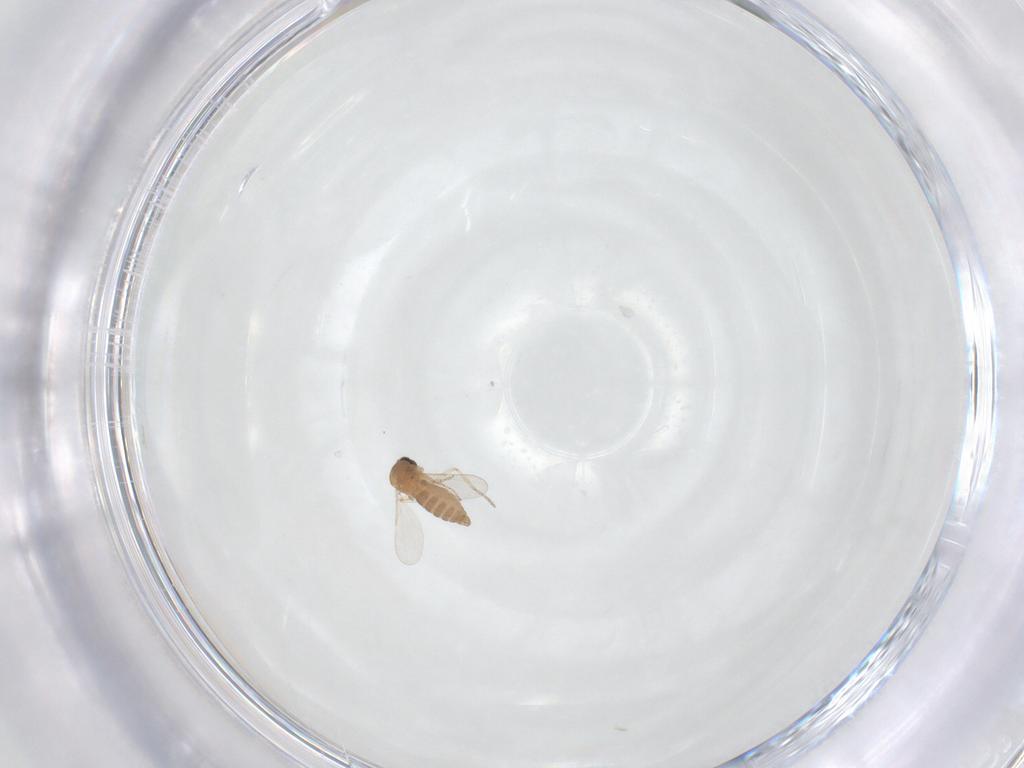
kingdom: Animalia
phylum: Arthropoda
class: Insecta
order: Diptera
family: Ceratopogonidae
